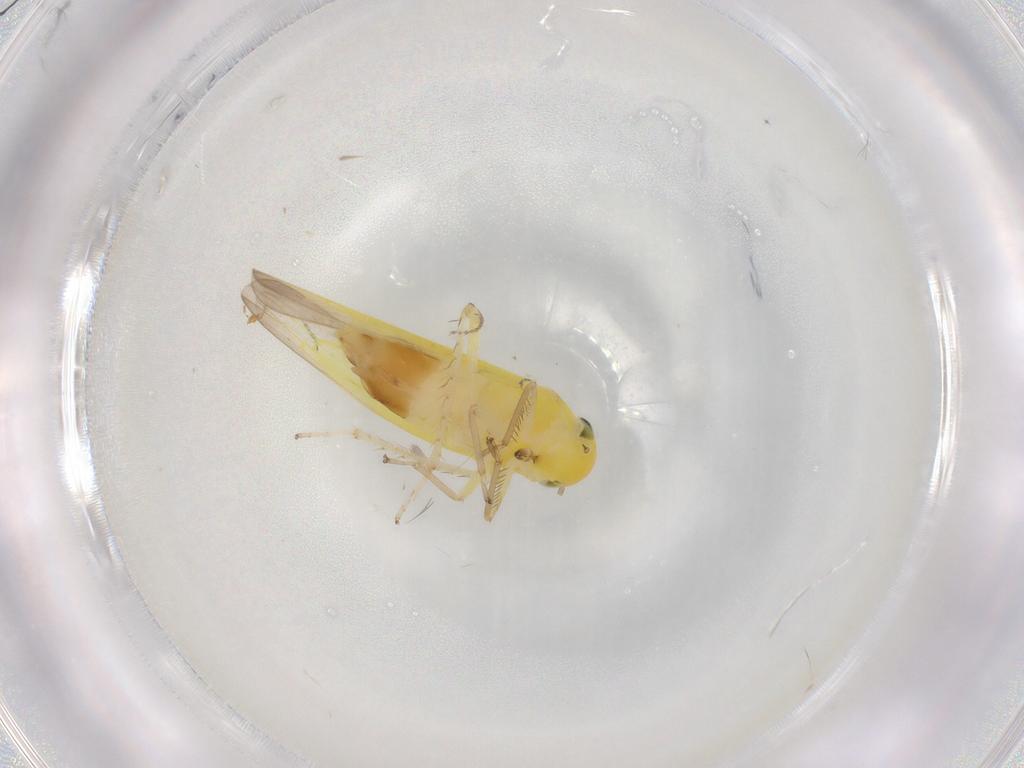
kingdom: Animalia
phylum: Arthropoda
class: Insecta
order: Hemiptera
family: Cicadellidae
